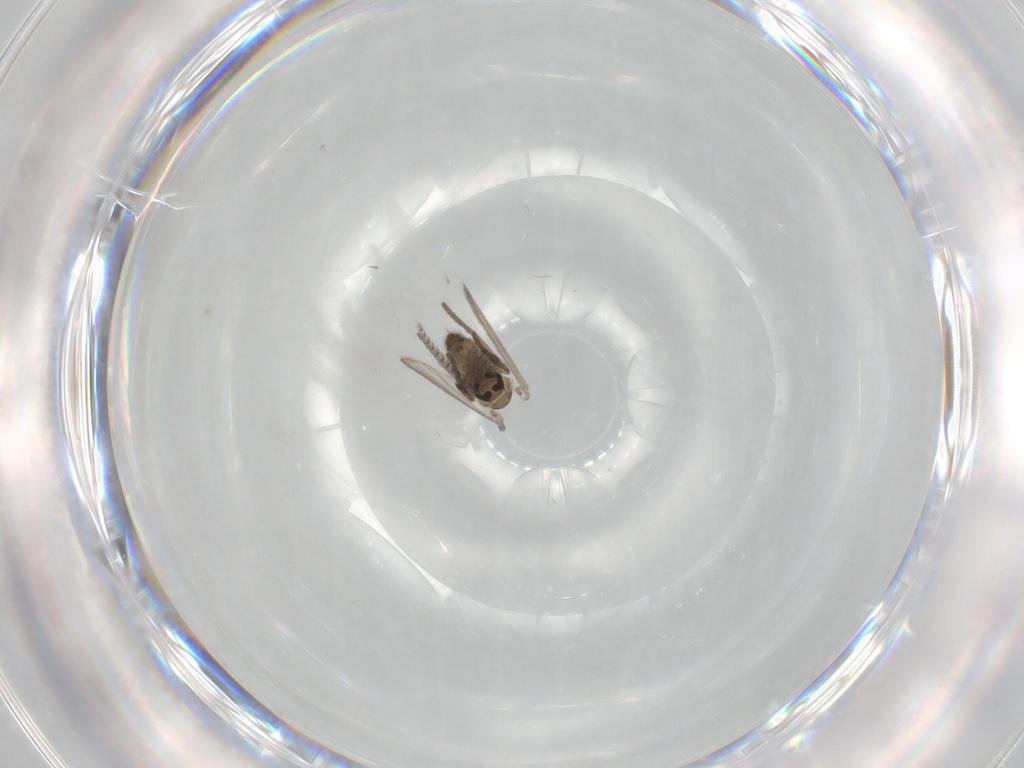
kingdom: Animalia
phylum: Arthropoda
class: Insecta
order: Diptera
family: Psychodidae
